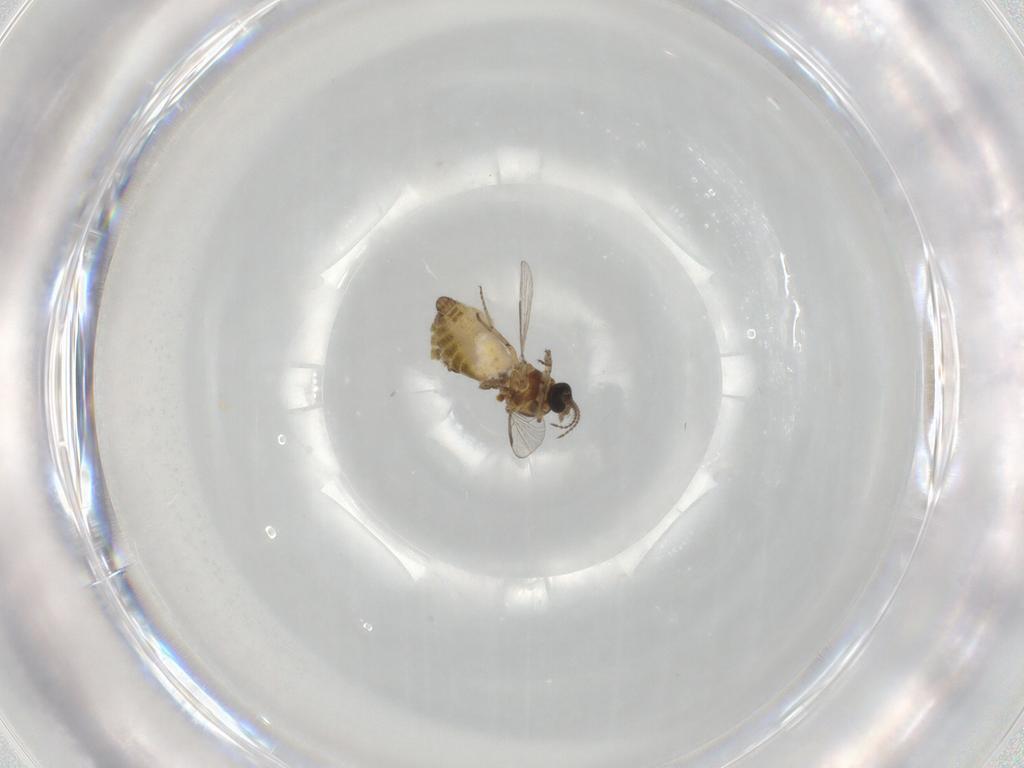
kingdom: Animalia
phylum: Arthropoda
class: Insecta
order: Diptera
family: Ceratopogonidae
